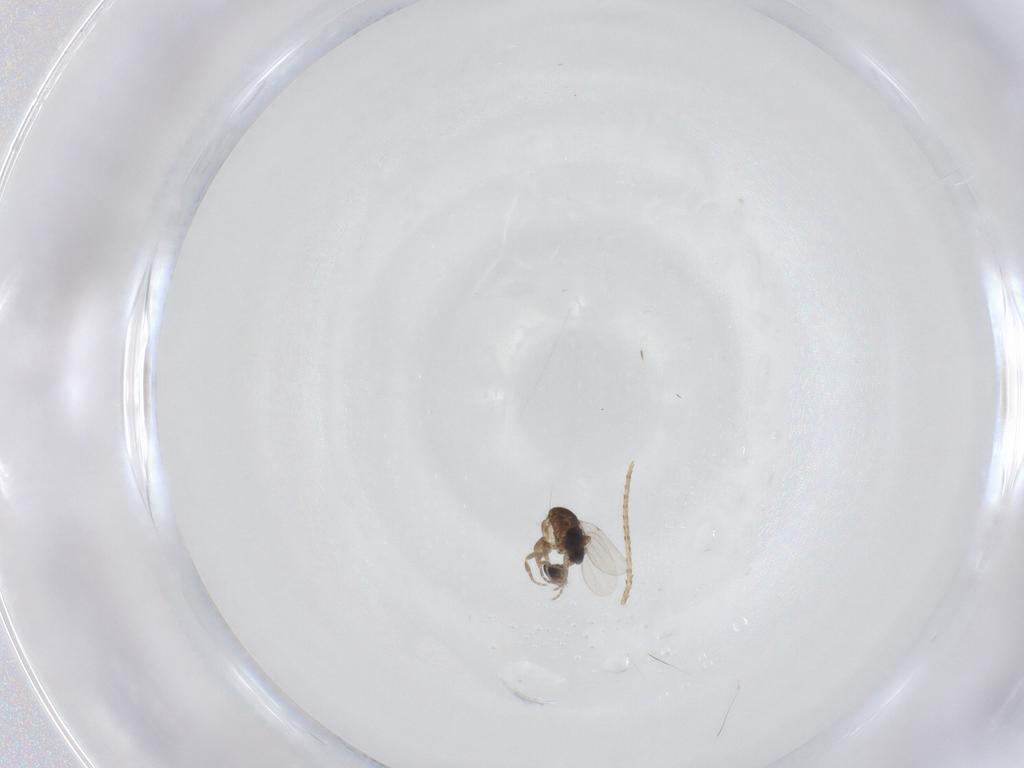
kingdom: Animalia
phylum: Arthropoda
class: Insecta
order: Diptera
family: Phoridae
